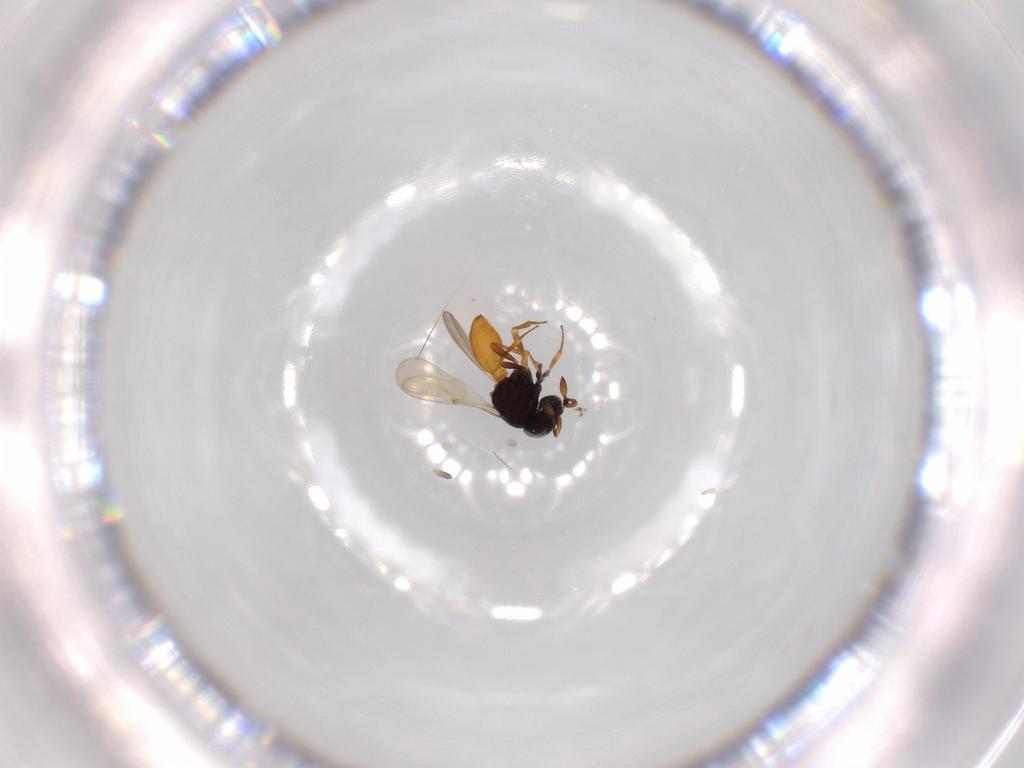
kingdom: Animalia
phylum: Arthropoda
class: Insecta
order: Hymenoptera
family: Scelionidae
